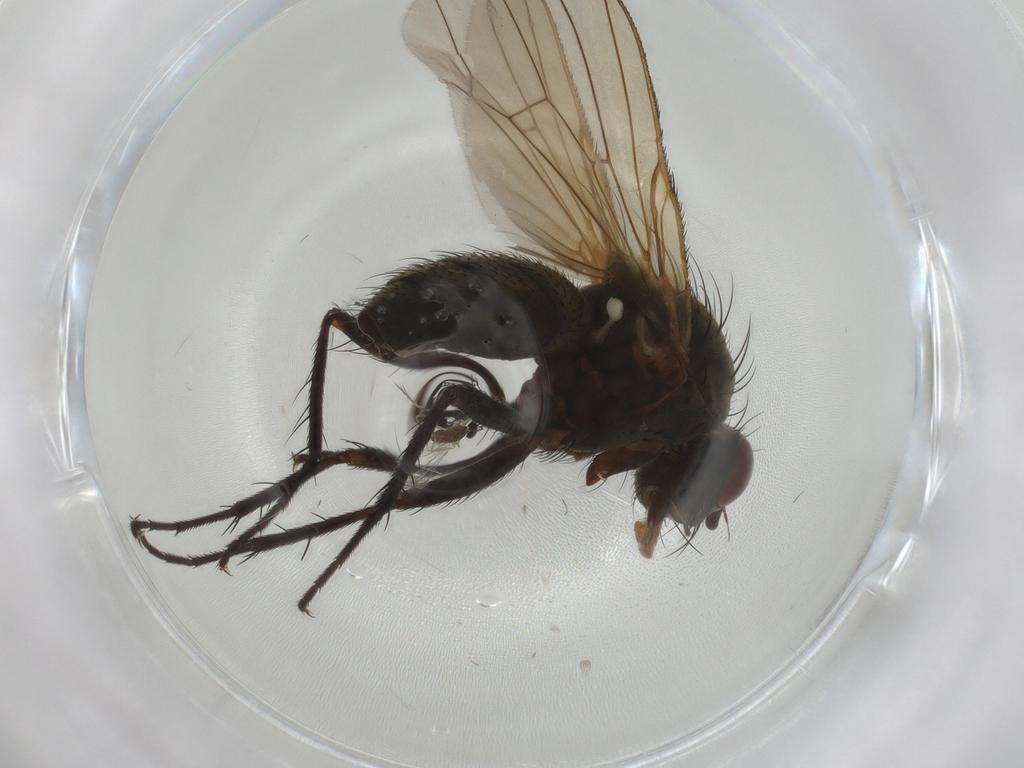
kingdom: Animalia
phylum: Arthropoda
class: Insecta
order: Diptera
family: Anthomyiidae
